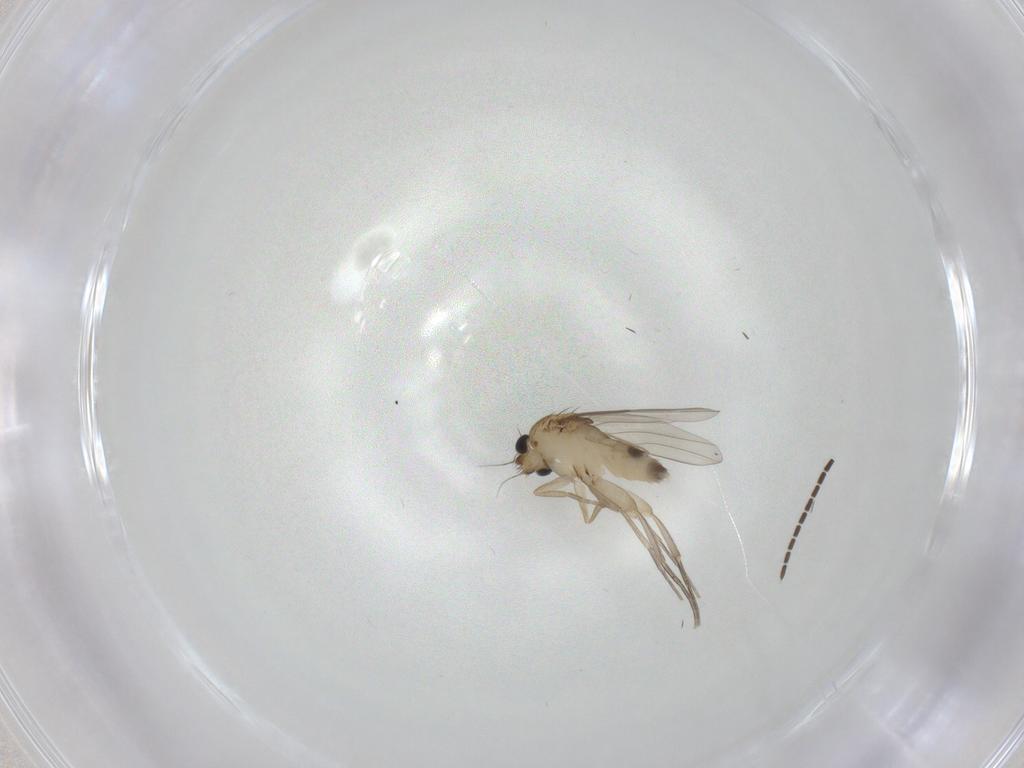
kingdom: Animalia
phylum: Arthropoda
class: Insecta
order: Diptera
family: Phoridae
